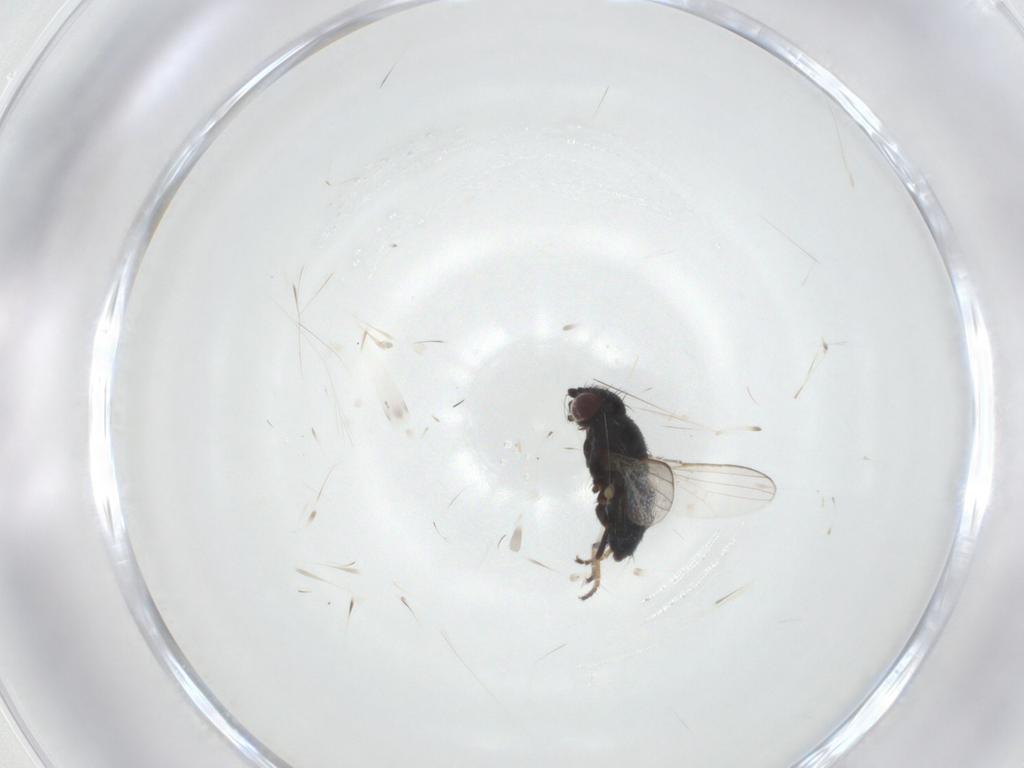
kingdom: Animalia
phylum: Arthropoda
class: Insecta
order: Diptera
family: Milichiidae
